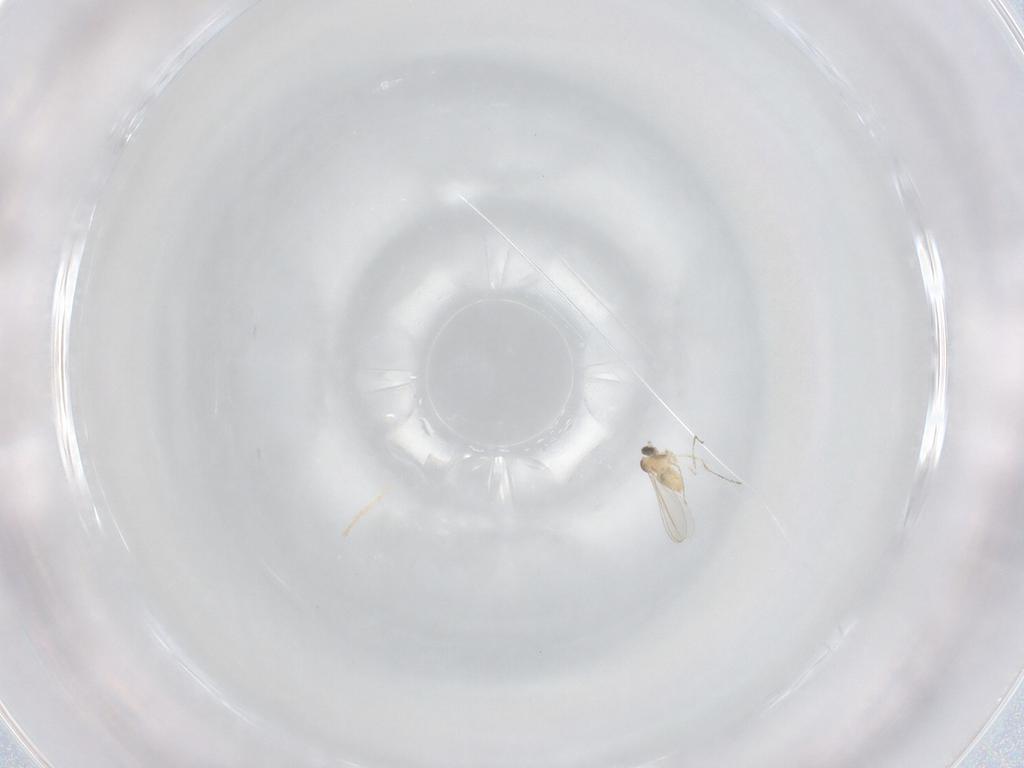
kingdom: Animalia
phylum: Arthropoda
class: Insecta
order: Diptera
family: Cecidomyiidae
